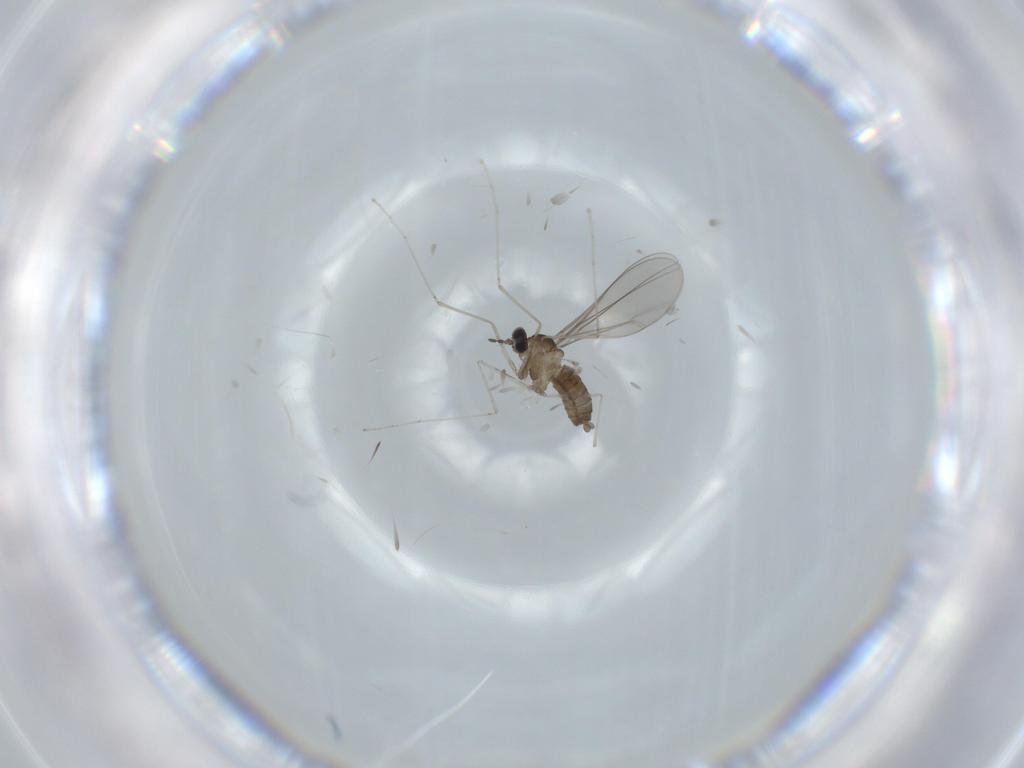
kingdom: Animalia
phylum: Arthropoda
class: Insecta
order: Diptera
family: Cecidomyiidae
